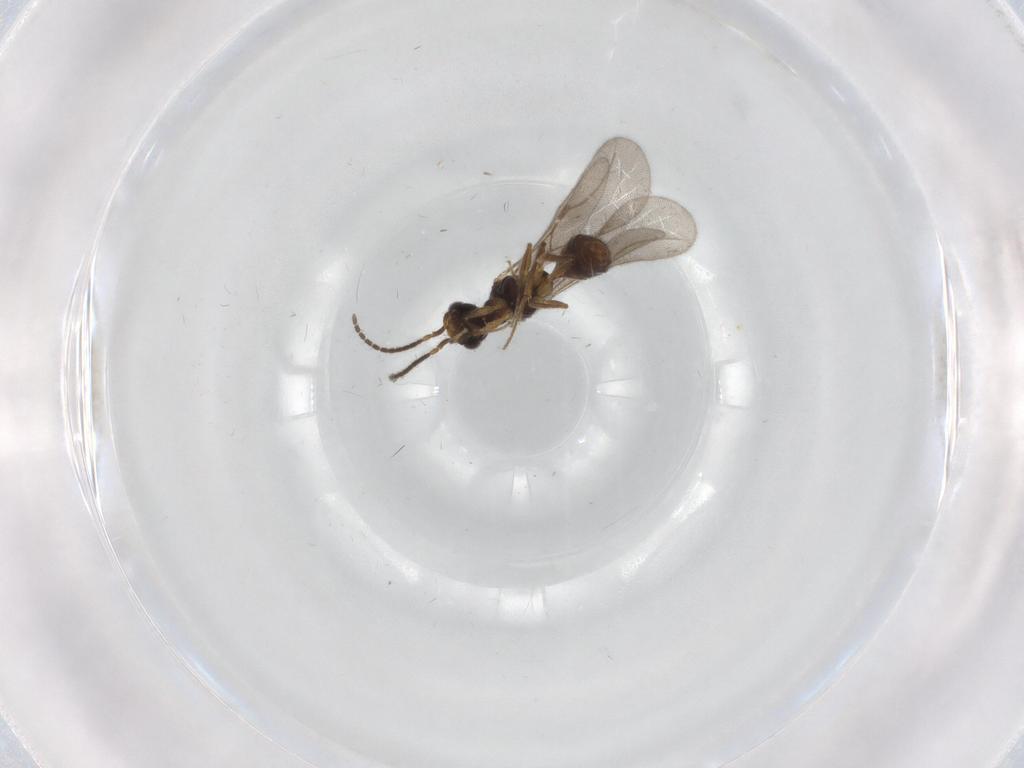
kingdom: Animalia
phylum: Arthropoda
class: Insecta
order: Hymenoptera
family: Bethylidae
